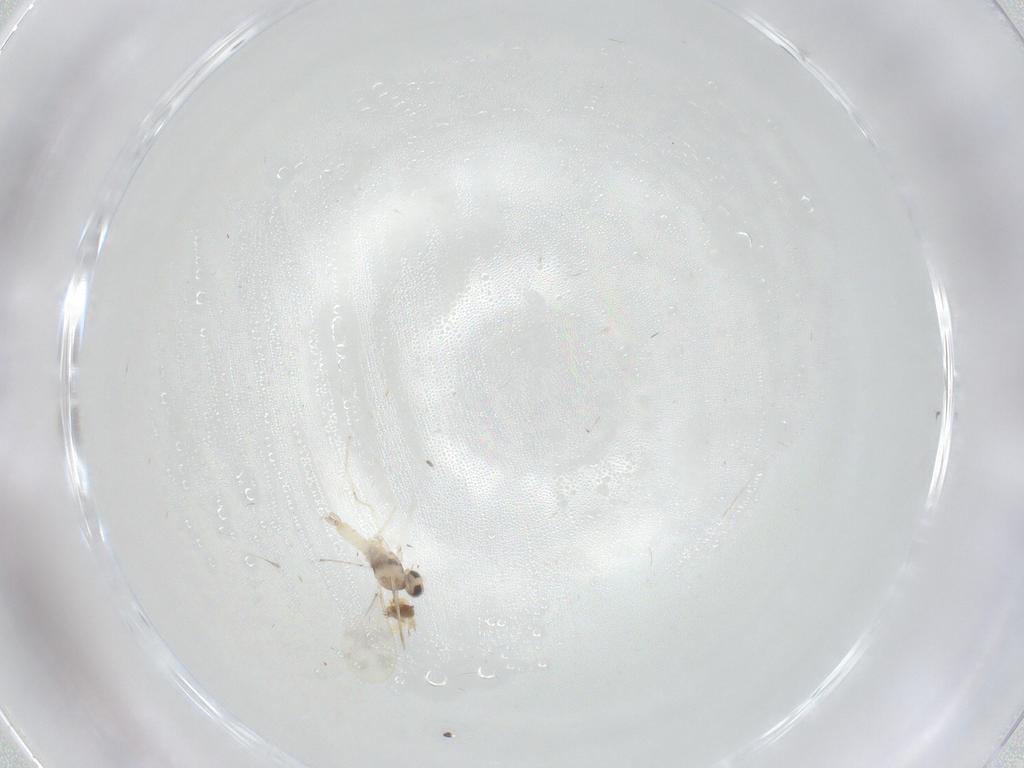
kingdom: Animalia
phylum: Arthropoda
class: Insecta
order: Diptera
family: Cecidomyiidae
